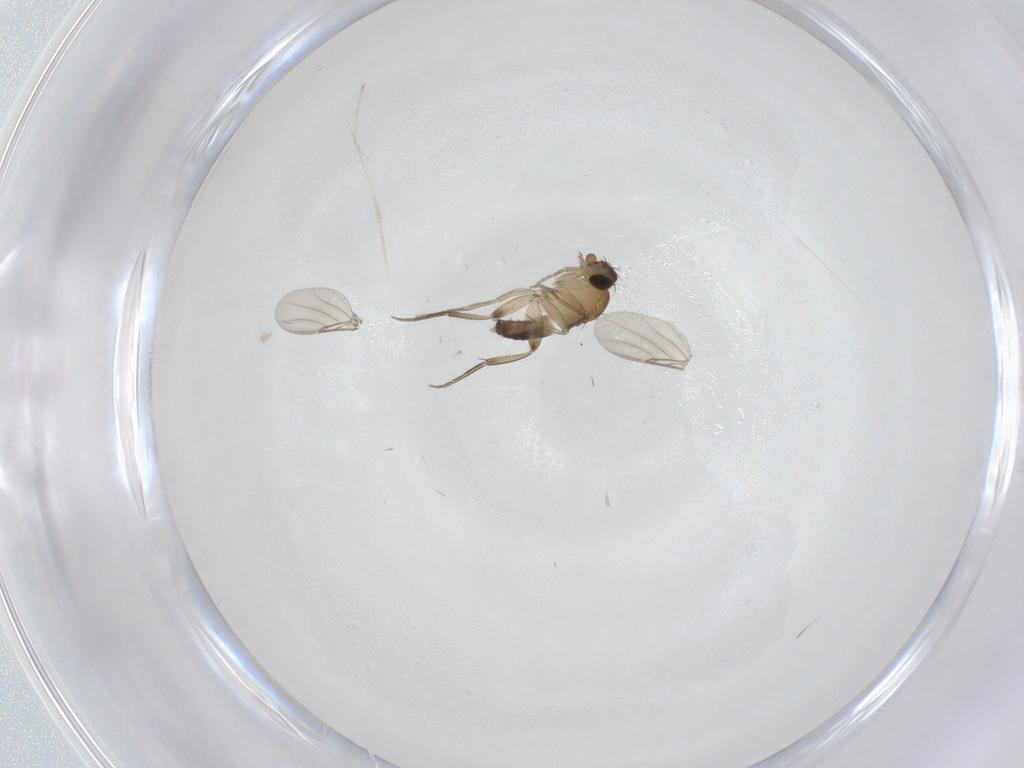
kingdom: Animalia
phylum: Arthropoda
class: Insecta
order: Diptera
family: Phoridae
